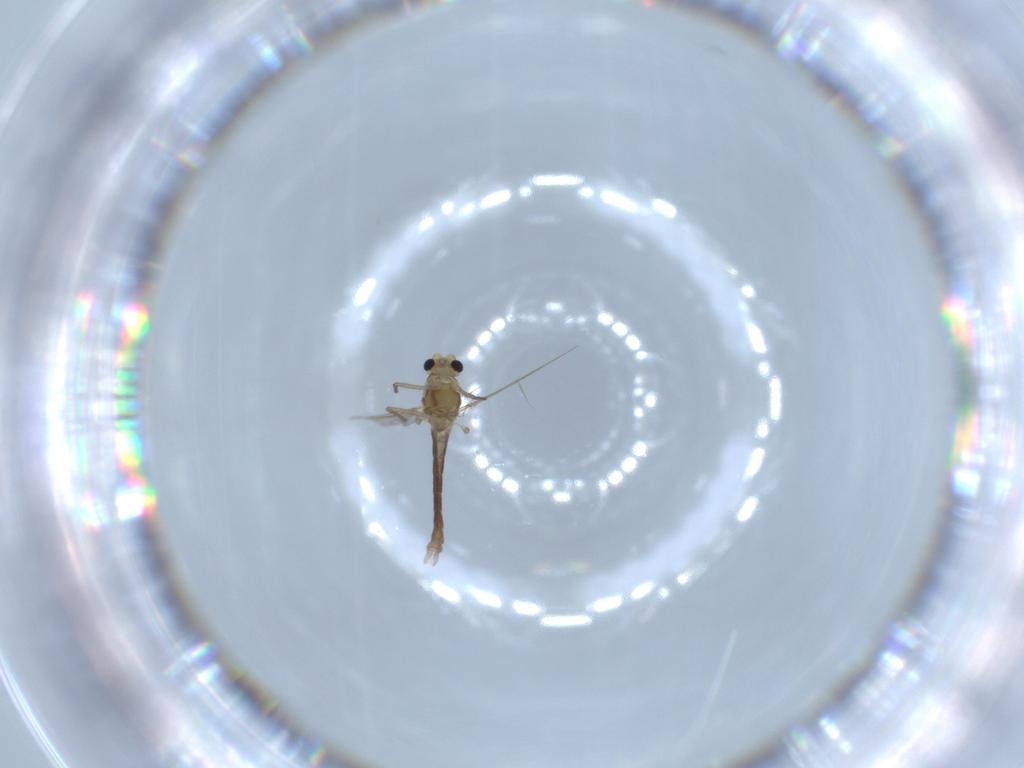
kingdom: Animalia
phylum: Arthropoda
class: Insecta
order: Diptera
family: Chironomidae
